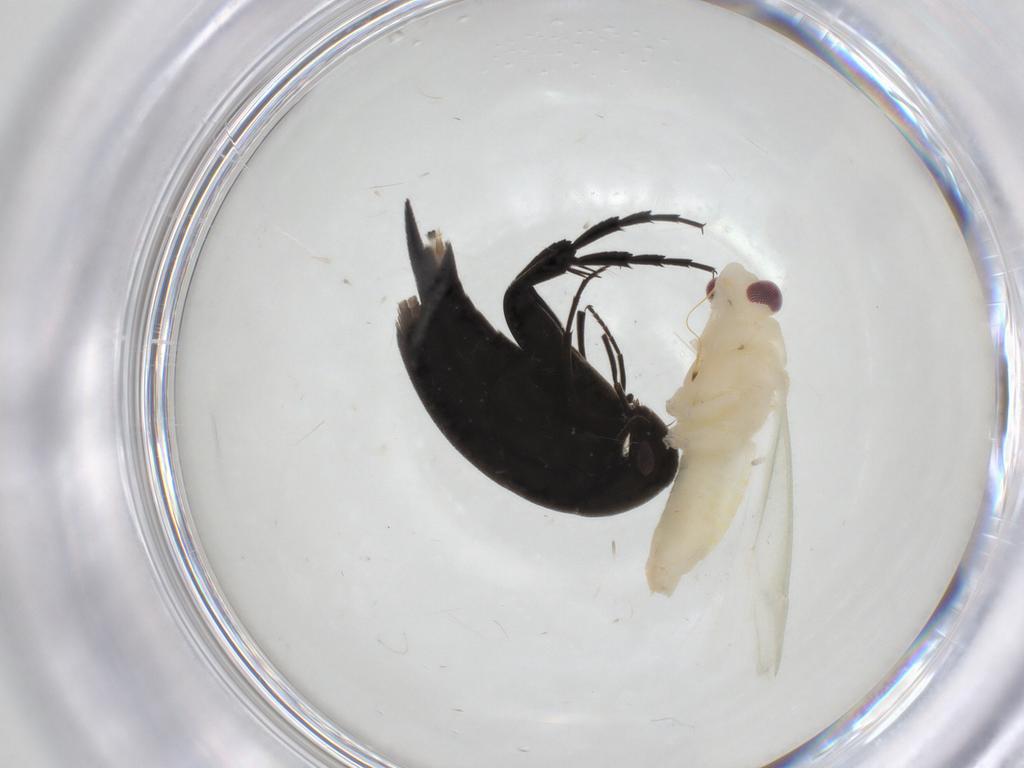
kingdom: Animalia
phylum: Arthropoda
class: Insecta
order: Coleoptera
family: Mordellidae
